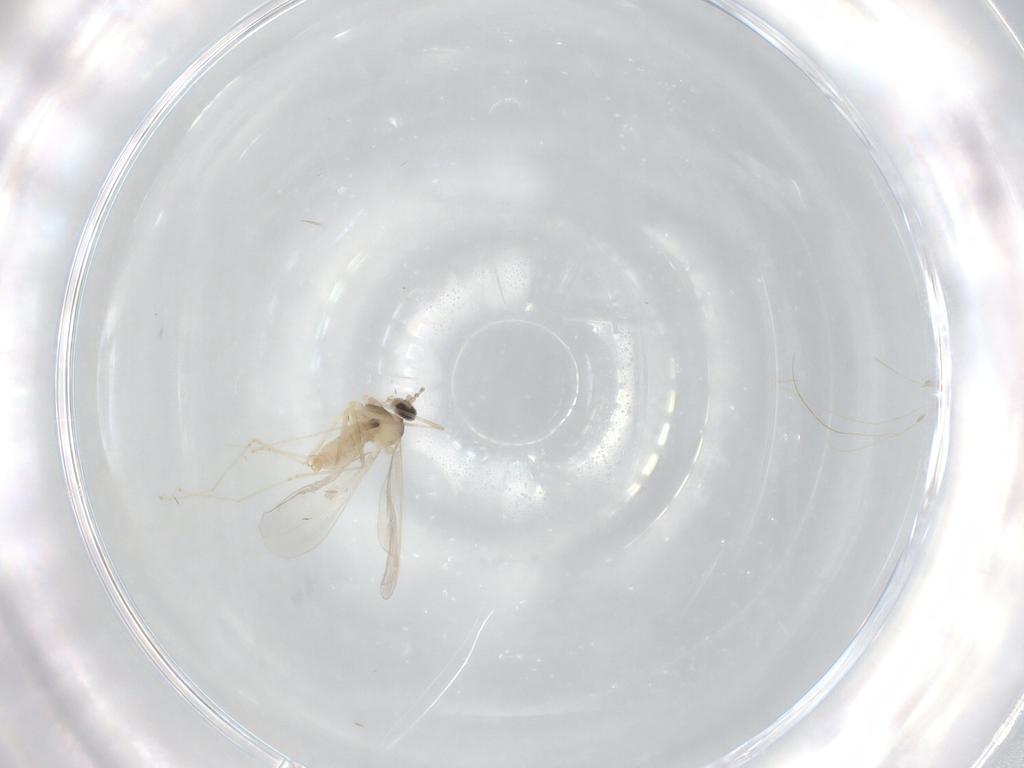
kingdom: Animalia
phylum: Arthropoda
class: Insecta
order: Diptera
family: Cecidomyiidae
